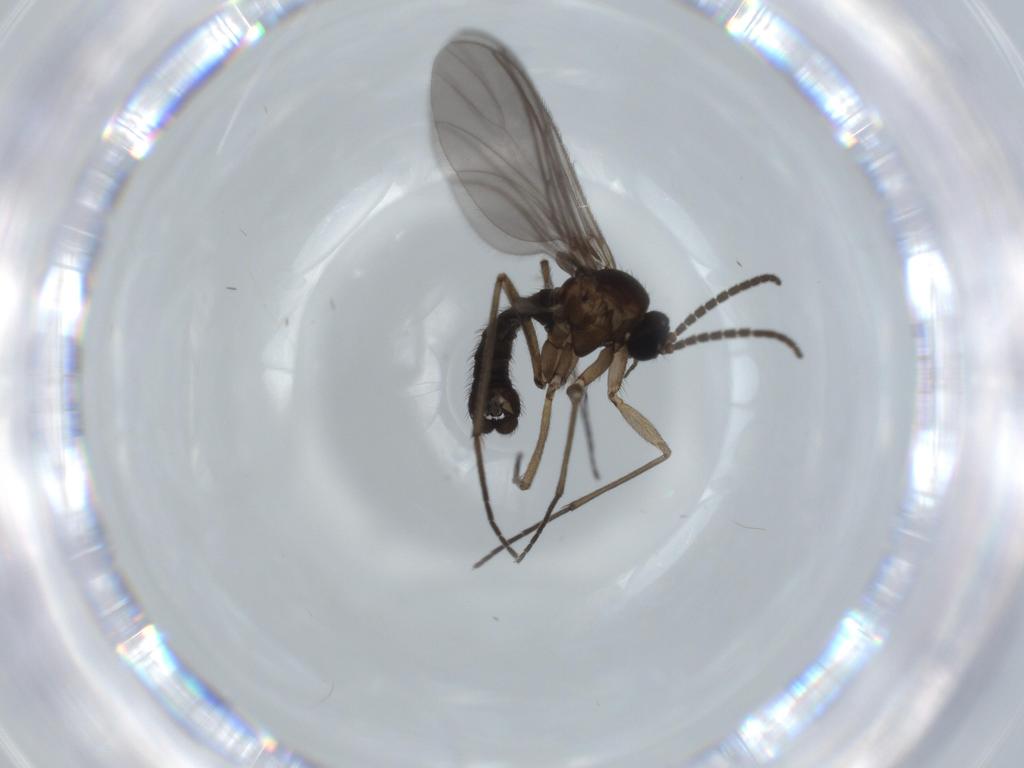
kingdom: Animalia
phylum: Arthropoda
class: Insecta
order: Diptera
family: Sciaridae
